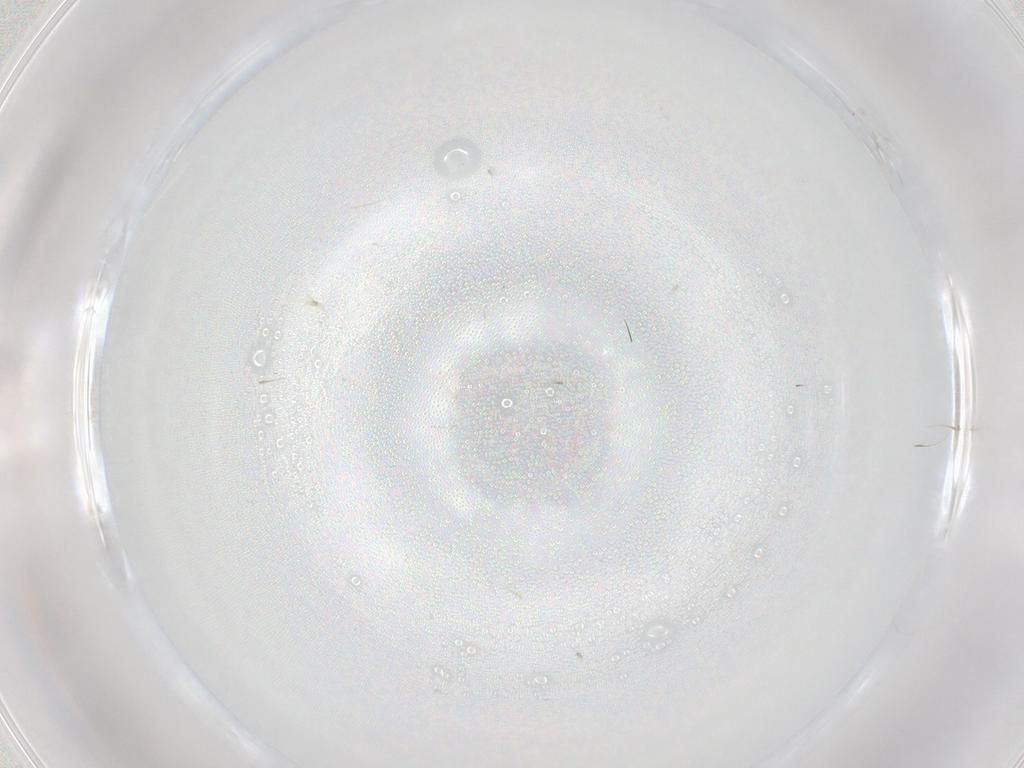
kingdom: Animalia
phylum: Arthropoda
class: Insecta
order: Diptera
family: Cecidomyiidae
